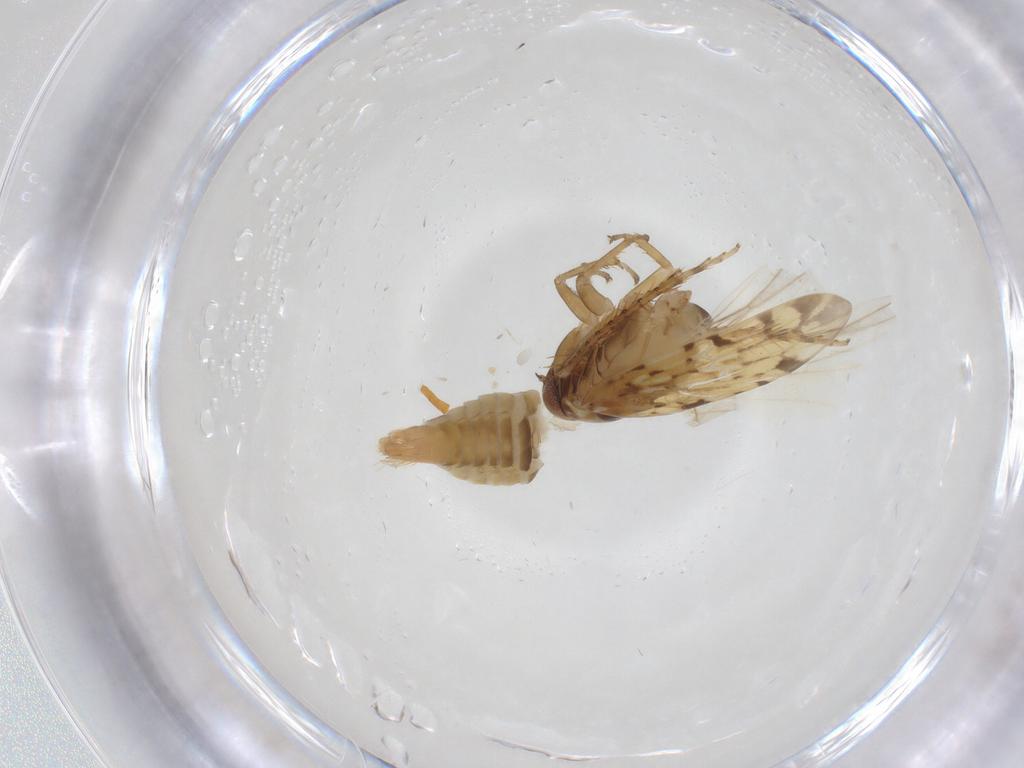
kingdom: Animalia
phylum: Arthropoda
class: Insecta
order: Hemiptera
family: Cicadellidae
